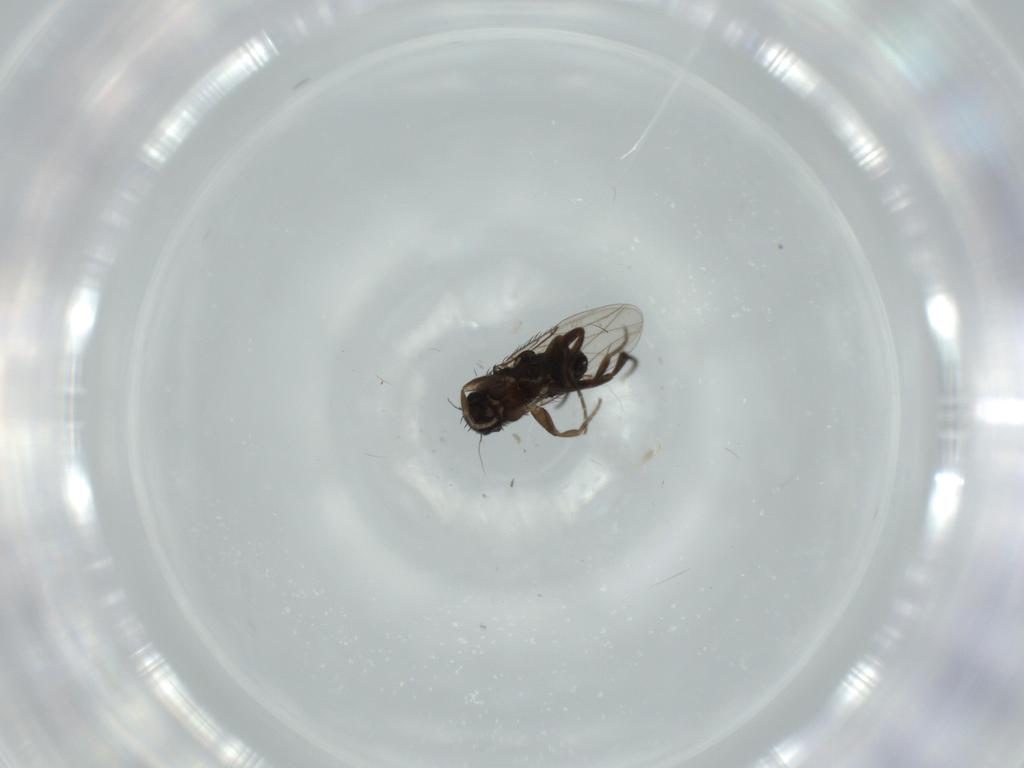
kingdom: Animalia
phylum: Arthropoda
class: Insecta
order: Diptera
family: Phoridae
